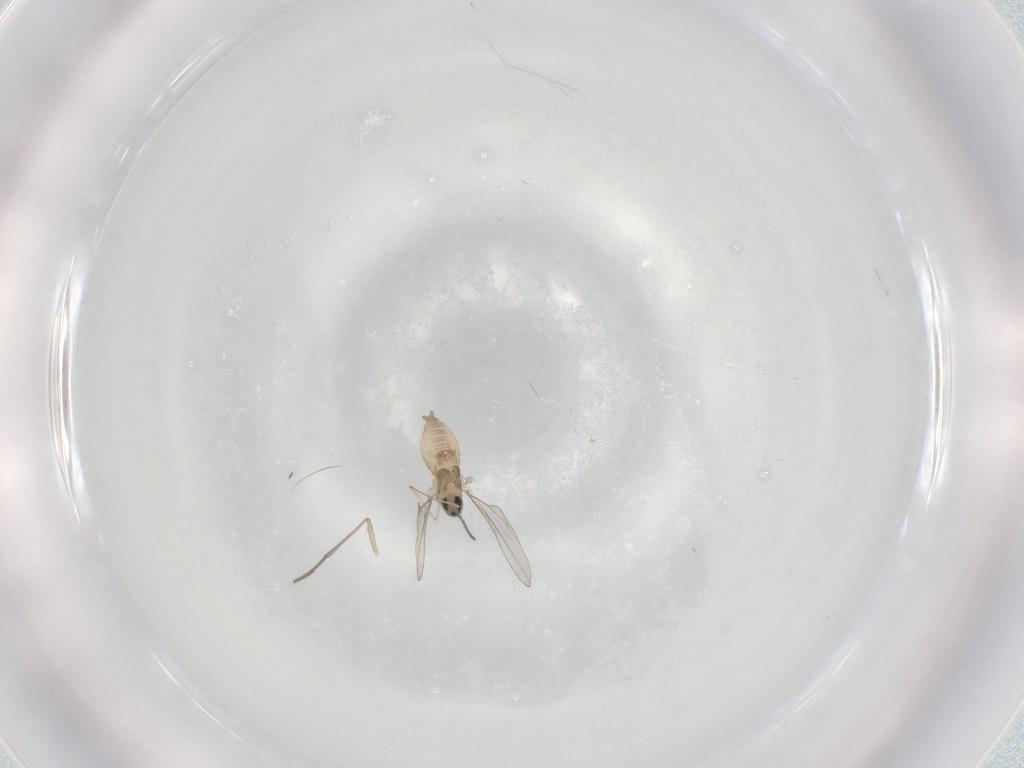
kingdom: Animalia
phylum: Arthropoda
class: Insecta
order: Diptera
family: Cecidomyiidae
